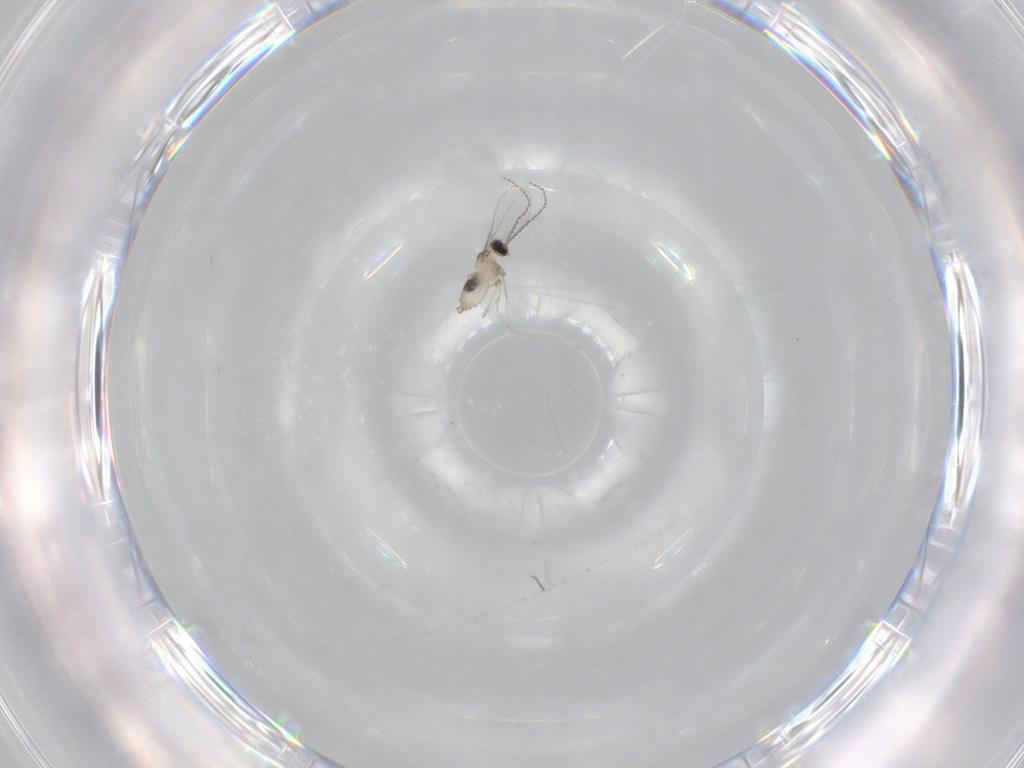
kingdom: Animalia
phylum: Arthropoda
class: Insecta
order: Diptera
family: Cecidomyiidae
